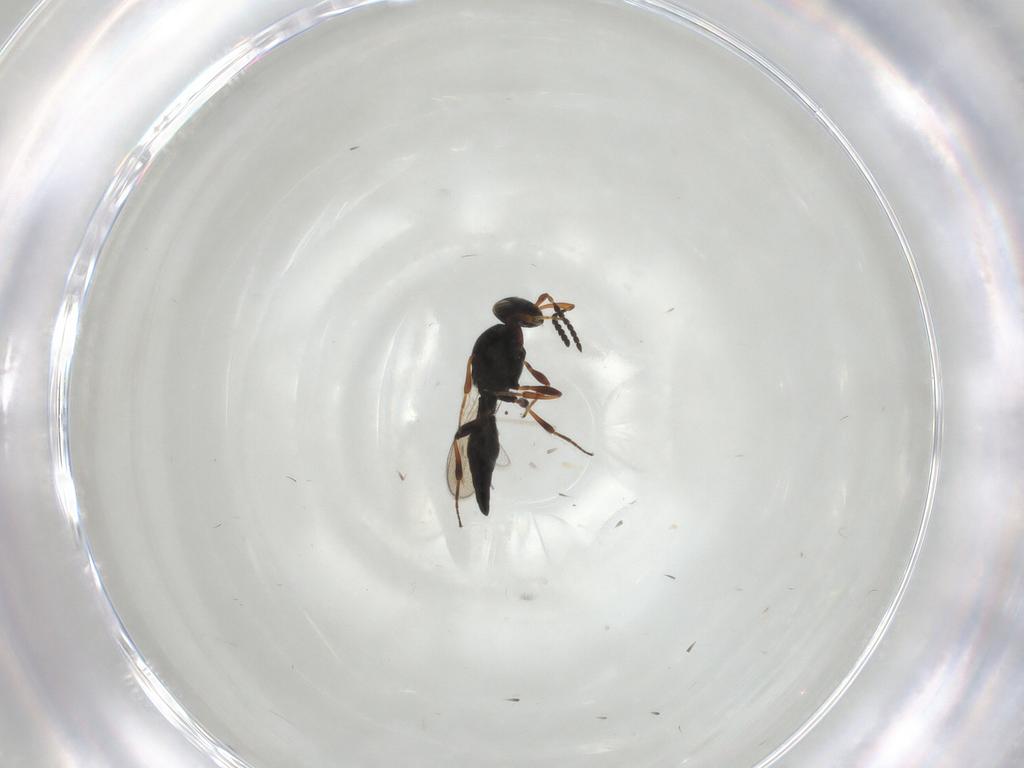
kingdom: Animalia
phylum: Arthropoda
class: Insecta
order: Hymenoptera
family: Platygastridae
